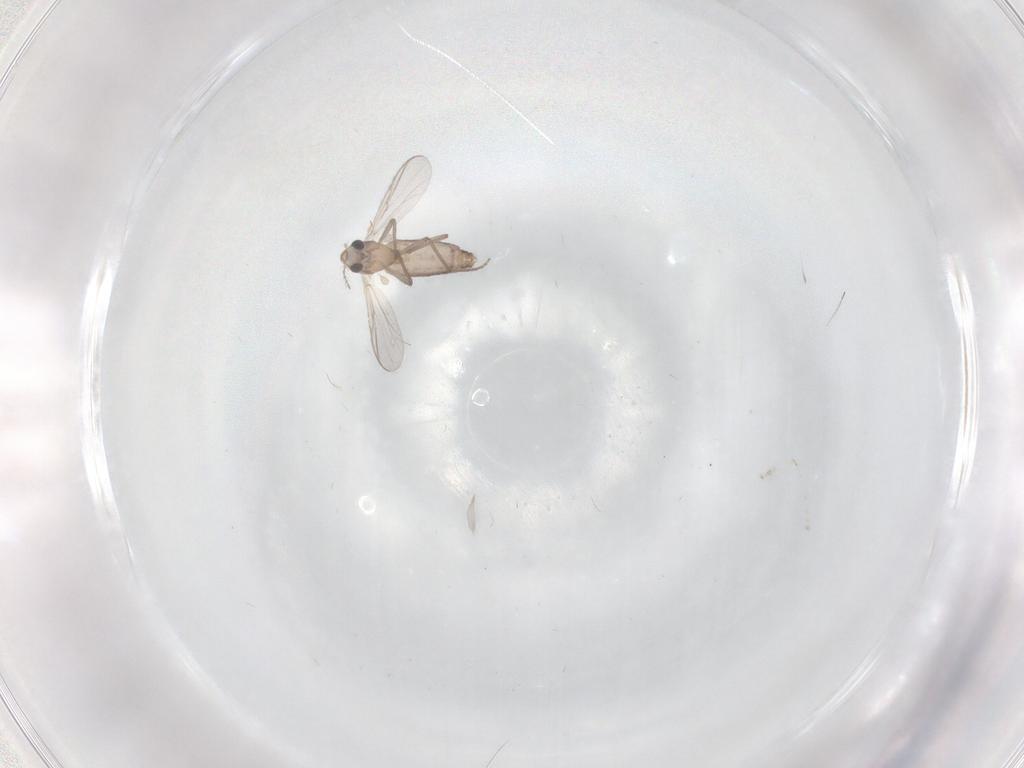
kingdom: Animalia
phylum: Arthropoda
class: Insecta
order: Diptera
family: Chironomidae
